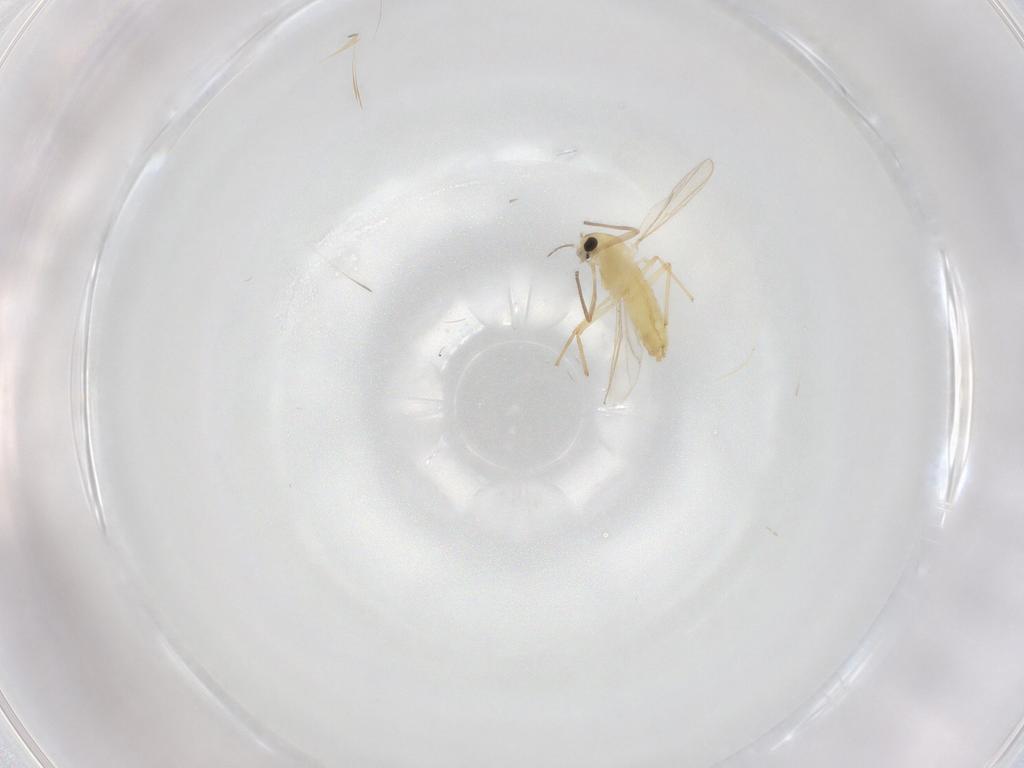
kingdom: Animalia
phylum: Arthropoda
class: Insecta
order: Diptera
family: Chironomidae
